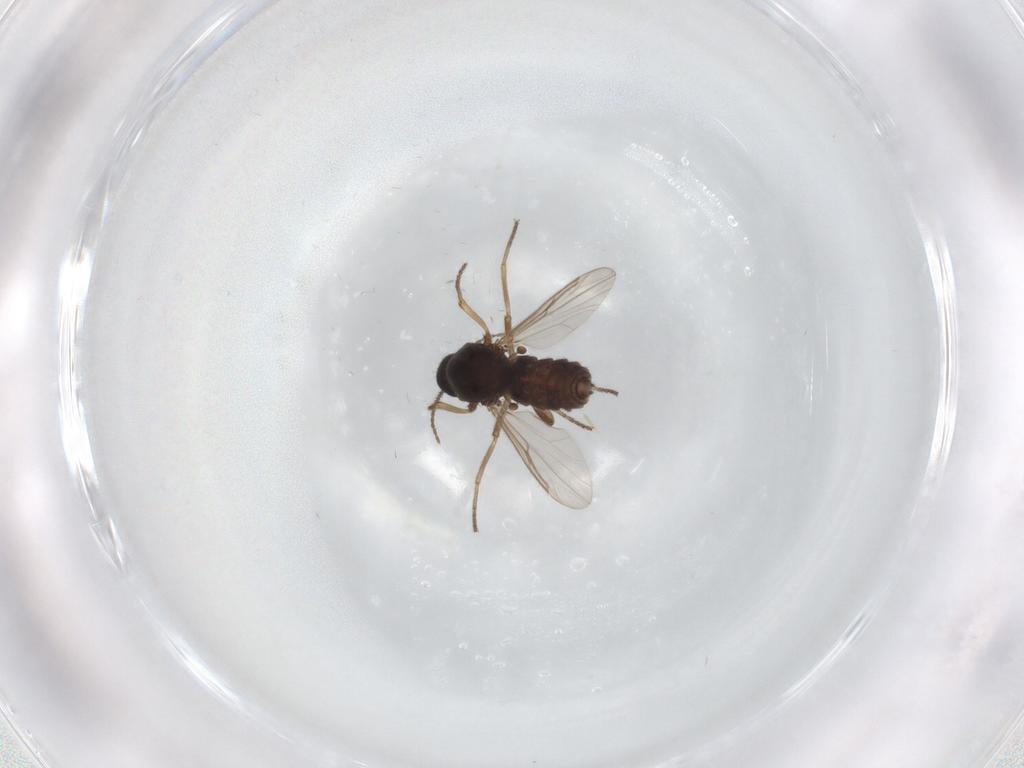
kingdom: Animalia
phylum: Arthropoda
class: Insecta
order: Diptera
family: Ceratopogonidae
